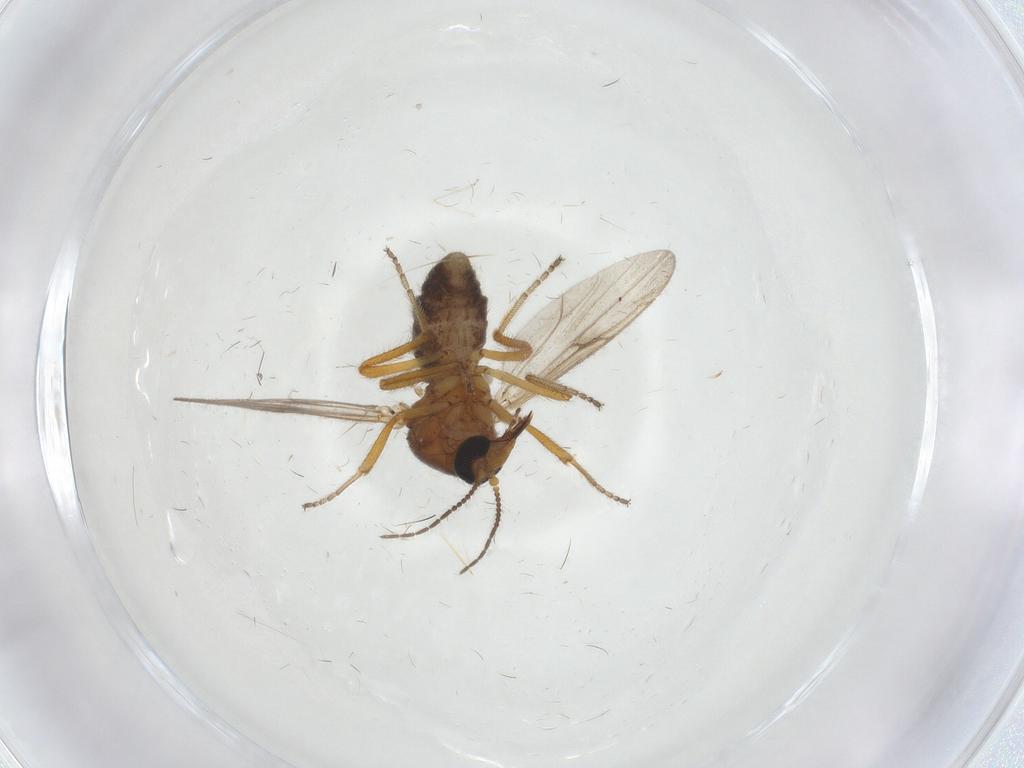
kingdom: Animalia
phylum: Arthropoda
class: Insecta
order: Diptera
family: Ceratopogonidae
